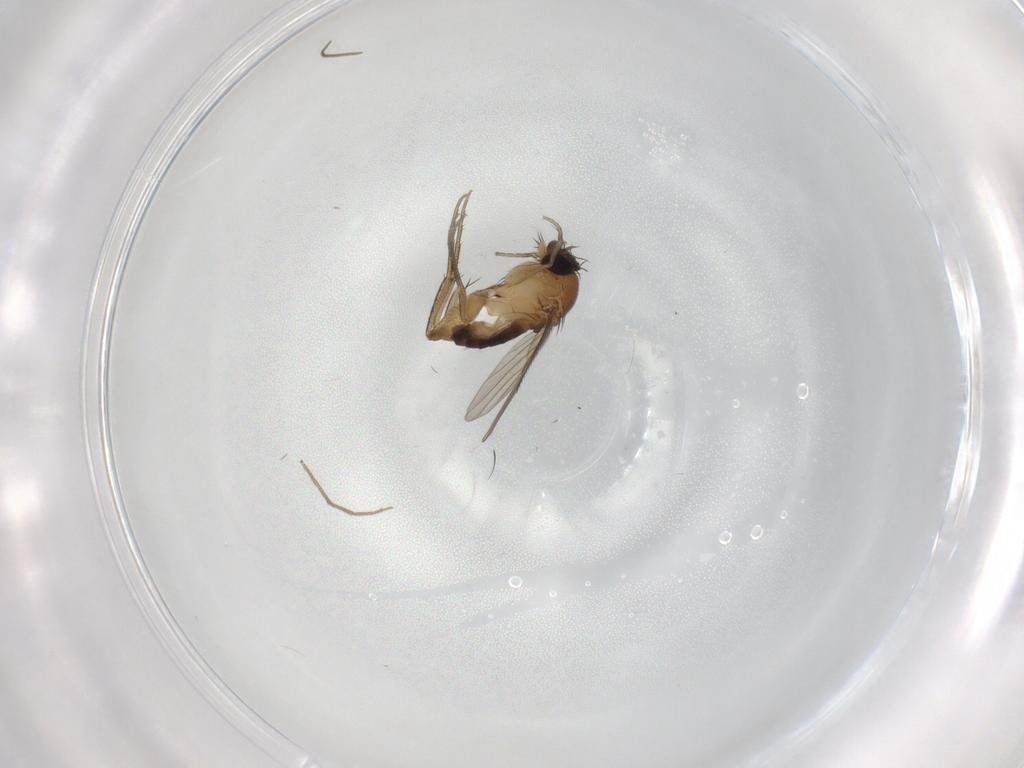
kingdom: Animalia
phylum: Arthropoda
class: Insecta
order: Diptera
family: Phoridae
